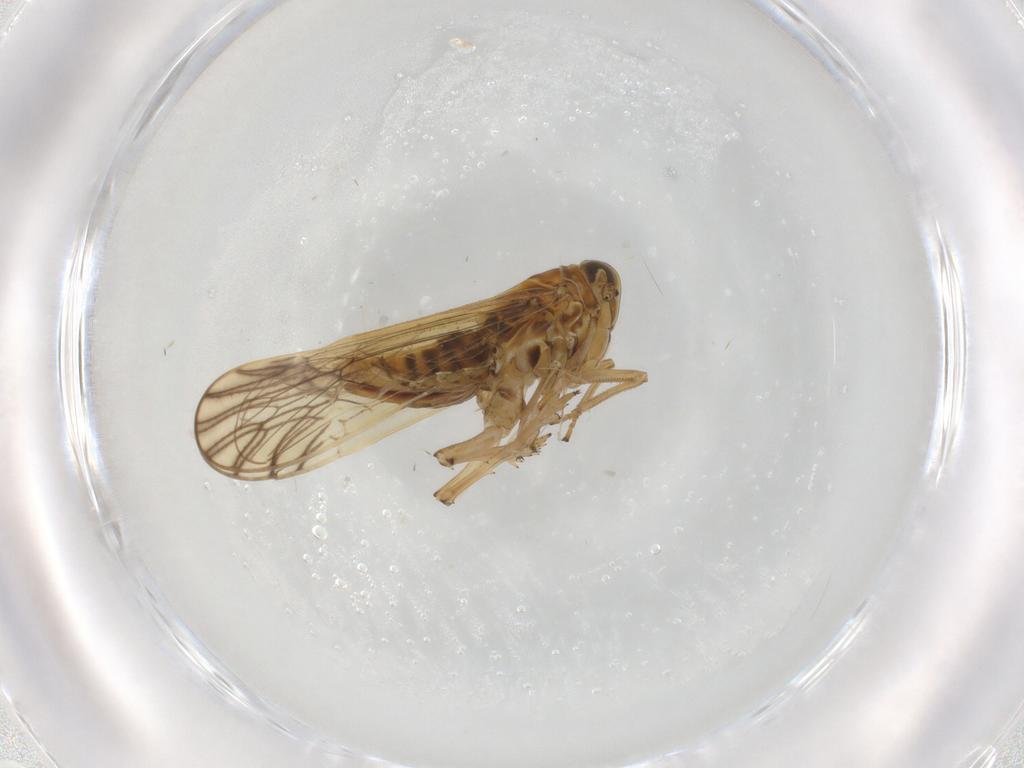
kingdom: Animalia
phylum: Arthropoda
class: Insecta
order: Hemiptera
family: Delphacidae
